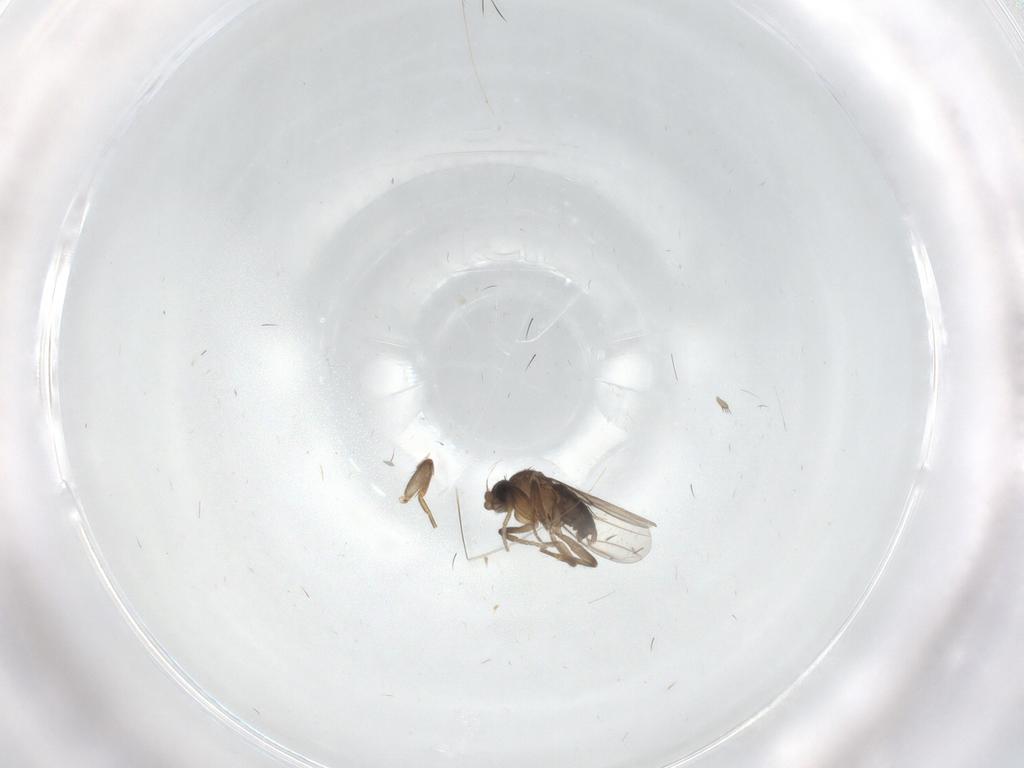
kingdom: Animalia
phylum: Arthropoda
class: Insecta
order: Diptera
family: Phoridae
